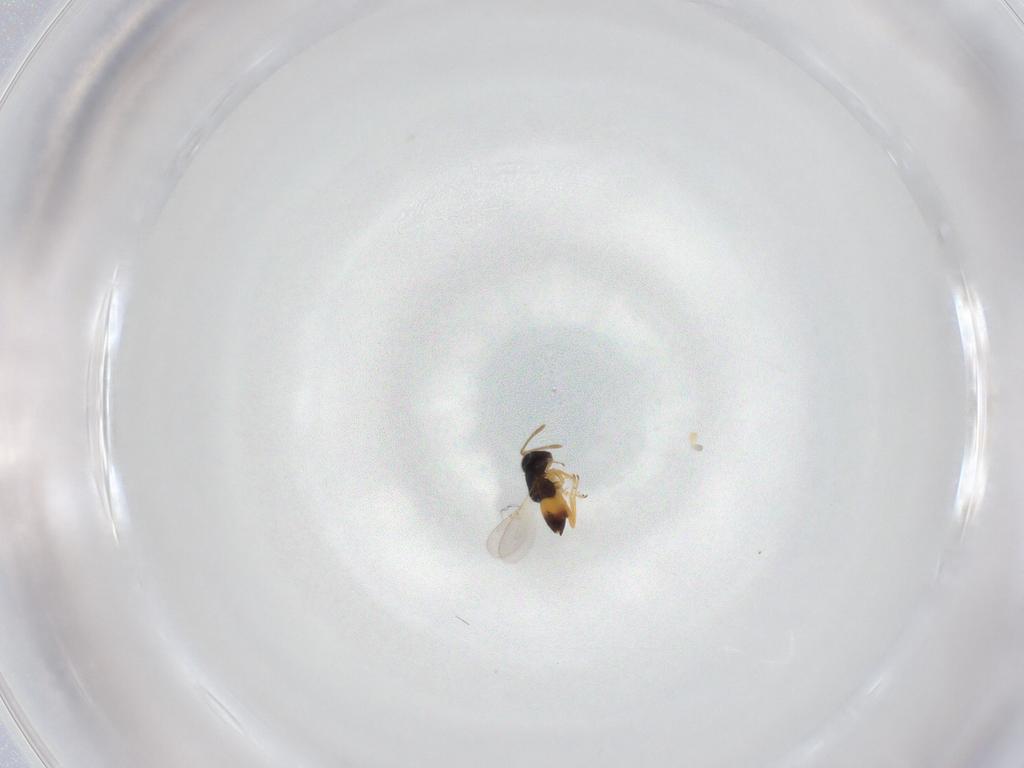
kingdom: Animalia
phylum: Arthropoda
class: Insecta
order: Hymenoptera
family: Encyrtidae
